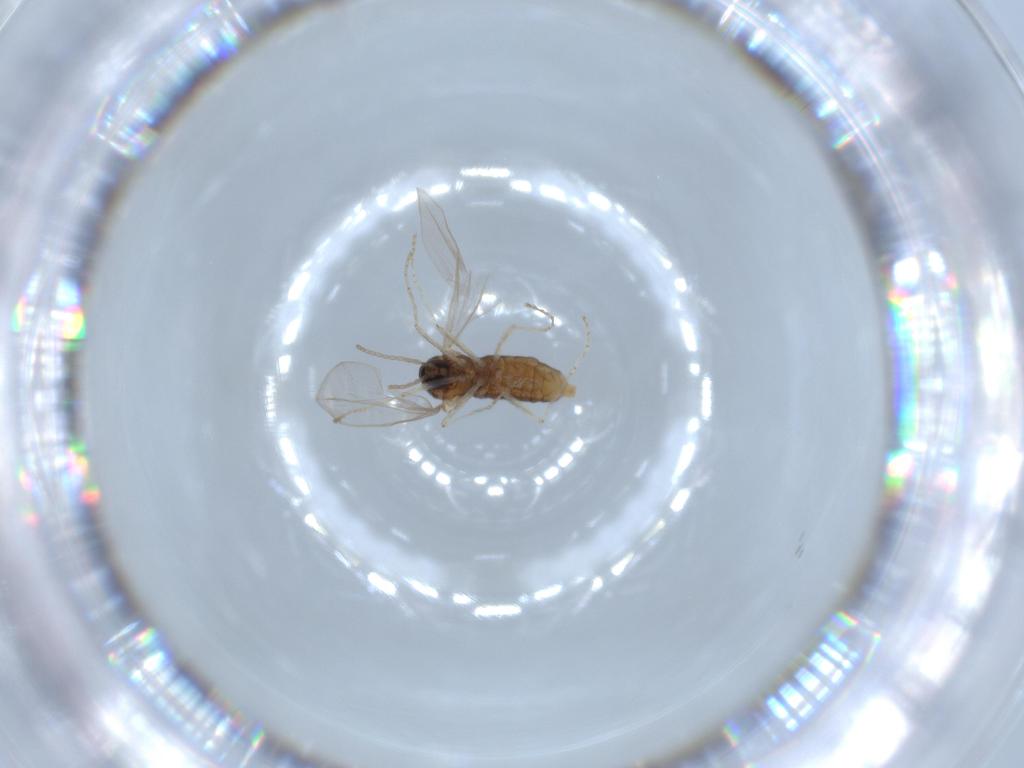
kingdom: Animalia
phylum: Arthropoda
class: Insecta
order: Diptera
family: Cecidomyiidae
